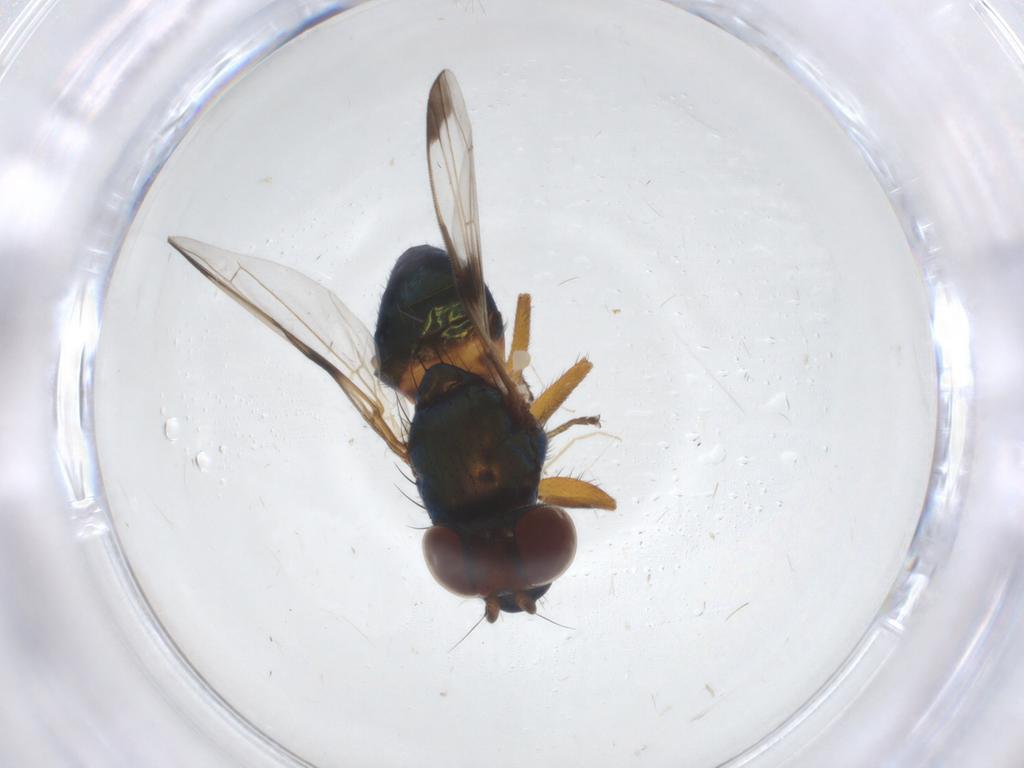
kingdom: Animalia
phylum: Arthropoda
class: Insecta
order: Diptera
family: Ulidiidae
